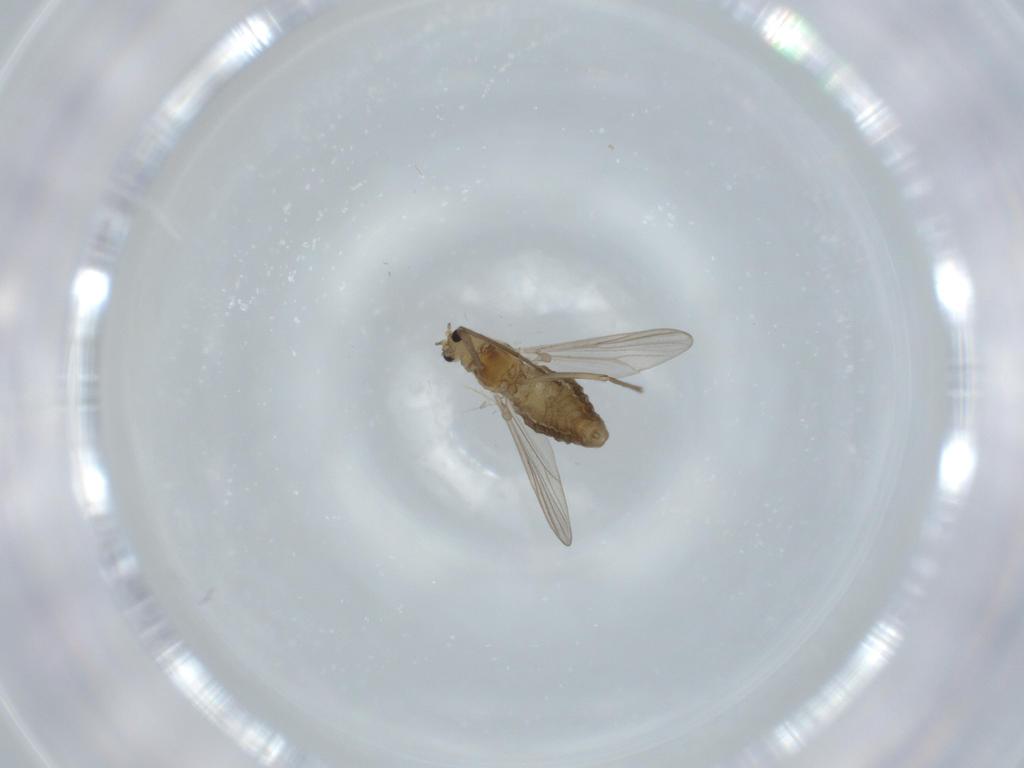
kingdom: Animalia
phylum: Arthropoda
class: Insecta
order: Diptera
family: Chironomidae
